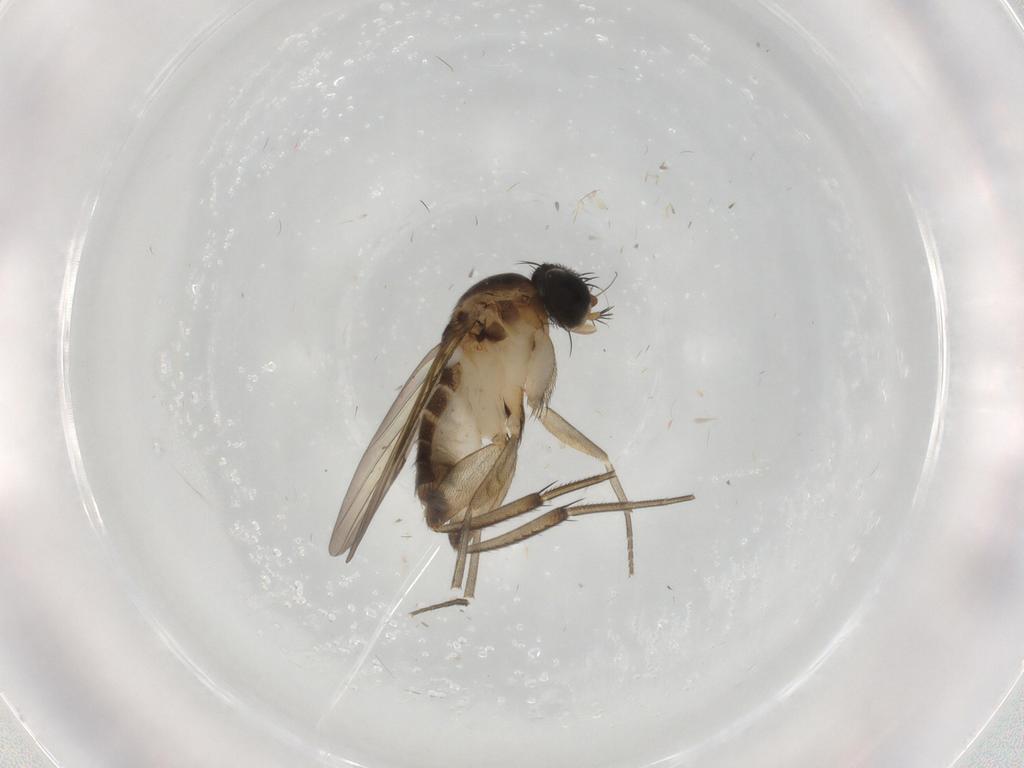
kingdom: Animalia
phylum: Arthropoda
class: Insecta
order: Diptera
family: Phoridae
